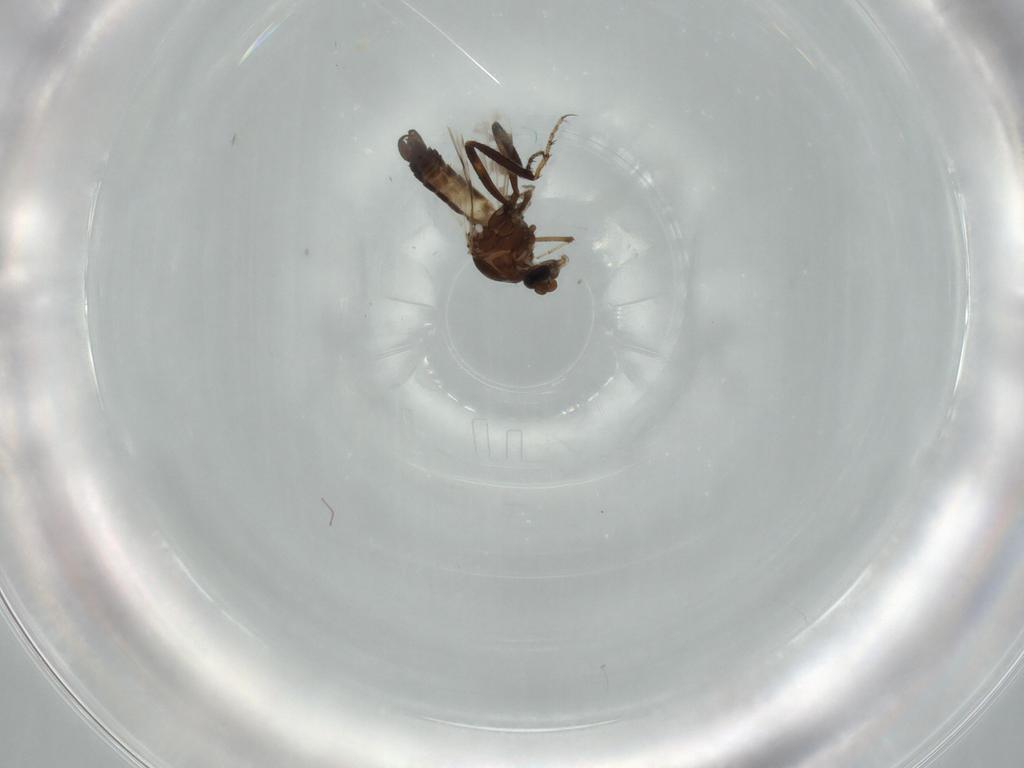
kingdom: Animalia
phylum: Arthropoda
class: Insecta
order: Diptera
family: Ceratopogonidae
